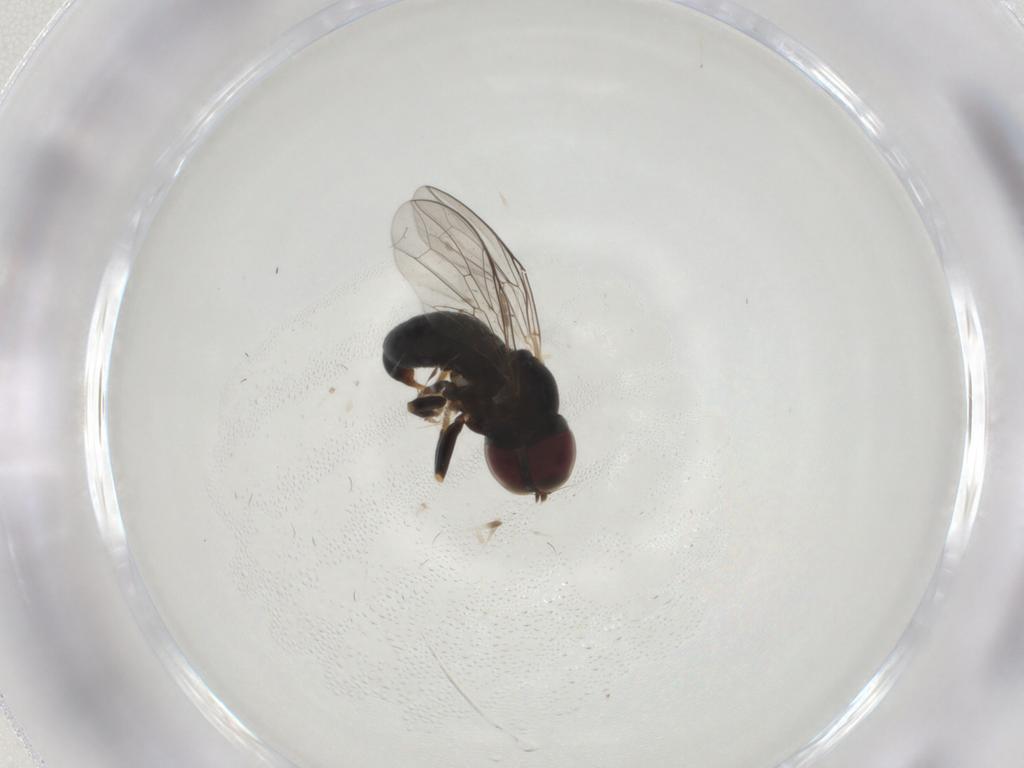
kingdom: Animalia
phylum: Arthropoda
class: Insecta
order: Diptera
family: Pipunculidae
